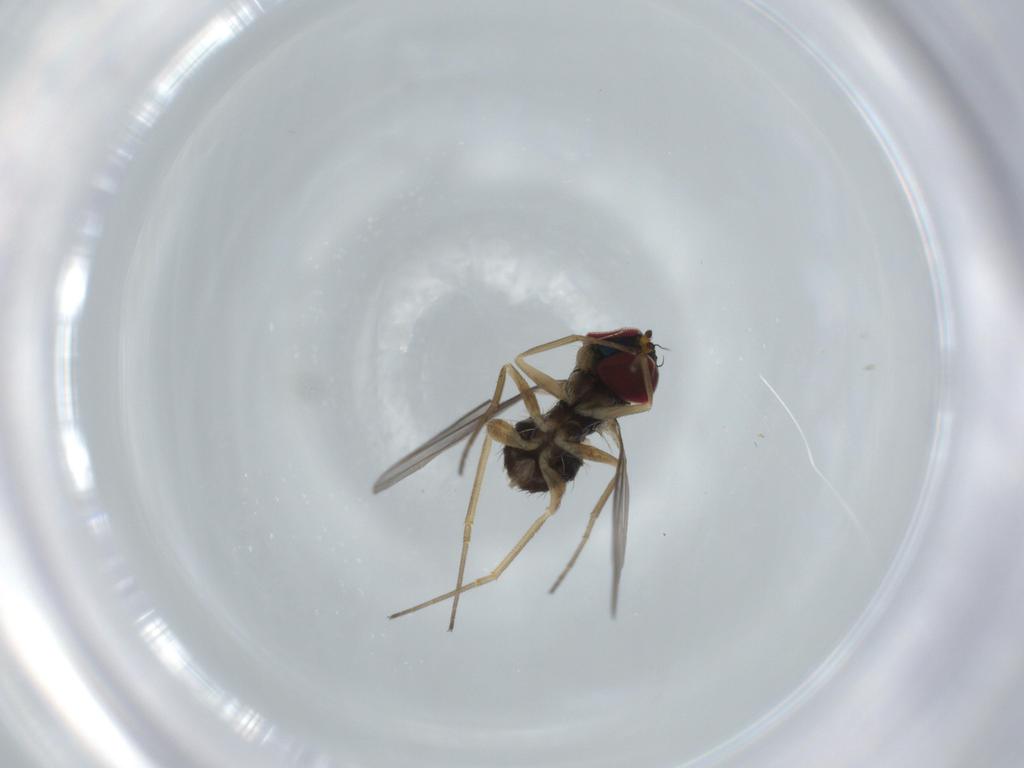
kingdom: Animalia
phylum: Arthropoda
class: Insecta
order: Diptera
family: Dolichopodidae
